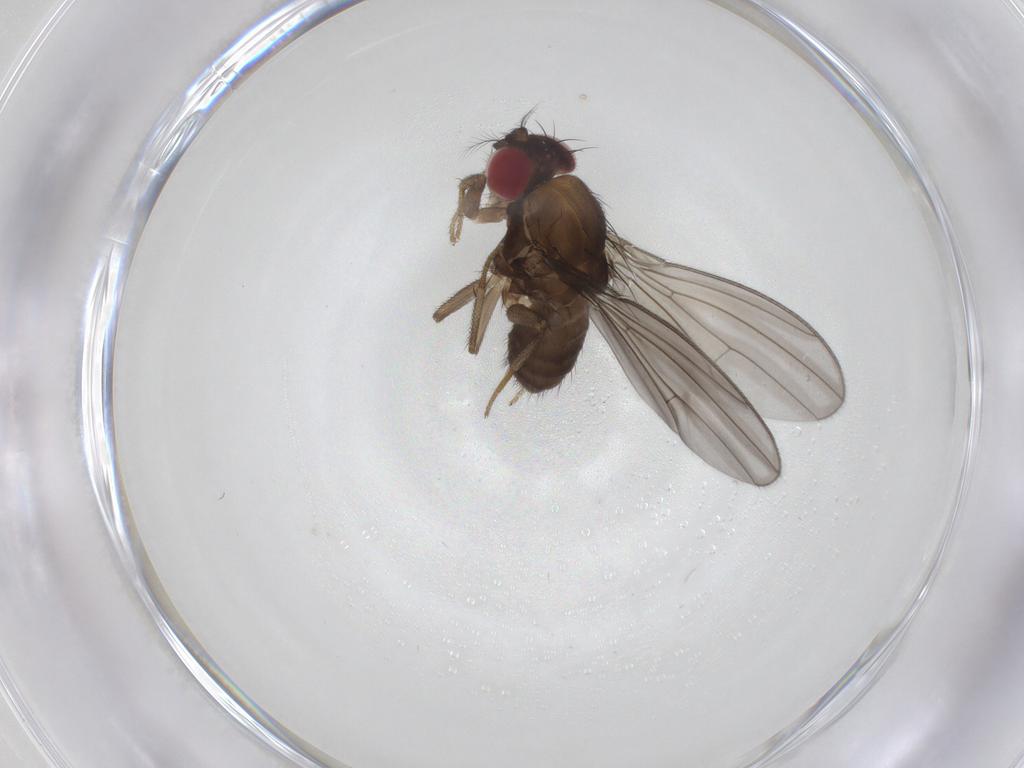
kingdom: Animalia
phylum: Arthropoda
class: Insecta
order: Diptera
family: Drosophilidae
